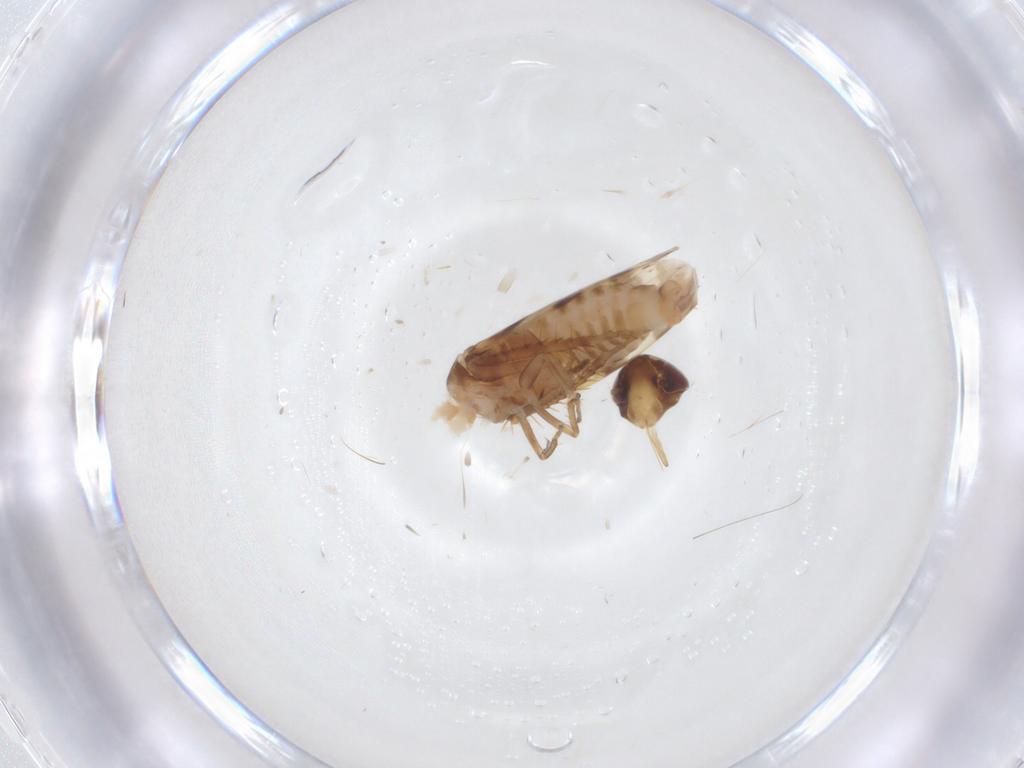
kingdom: Animalia
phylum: Arthropoda
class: Insecta
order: Hemiptera
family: Cicadellidae
